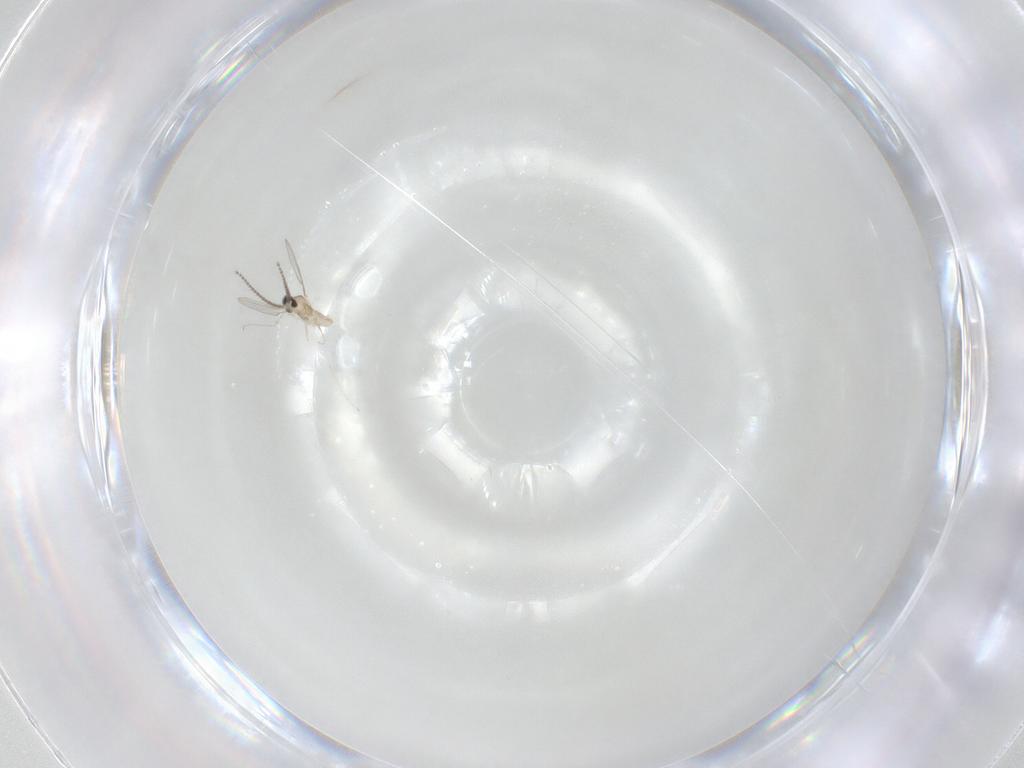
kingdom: Animalia
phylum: Arthropoda
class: Insecta
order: Diptera
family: Cecidomyiidae
